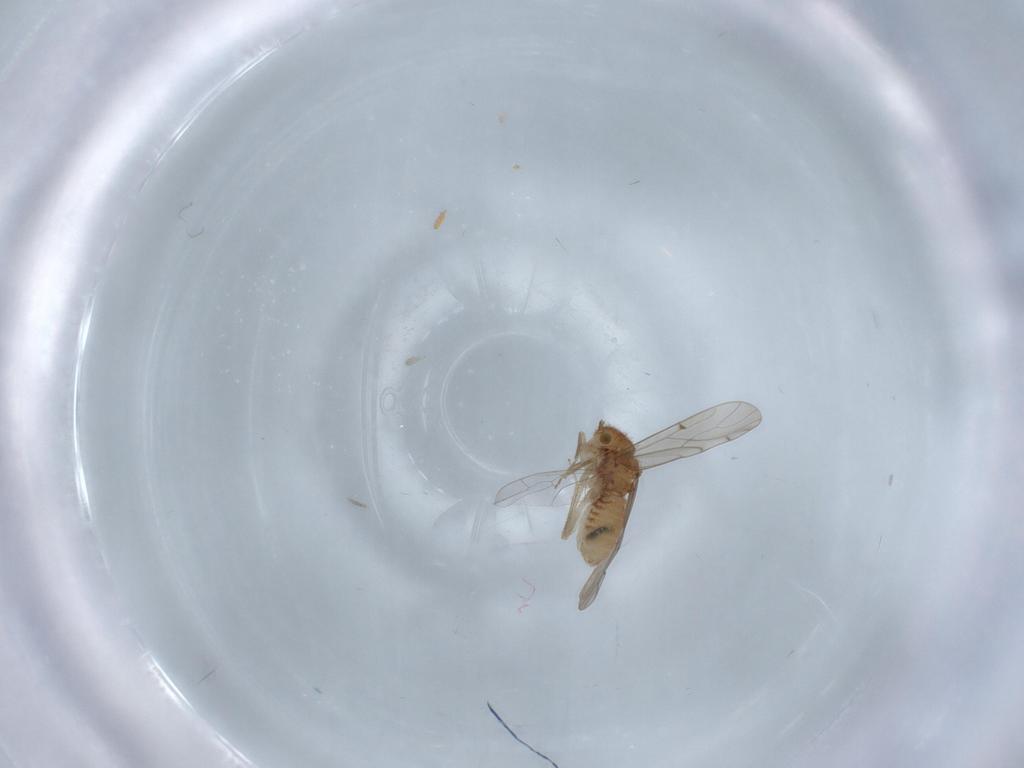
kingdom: Animalia
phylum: Arthropoda
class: Insecta
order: Psocodea
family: Ectopsocidae
